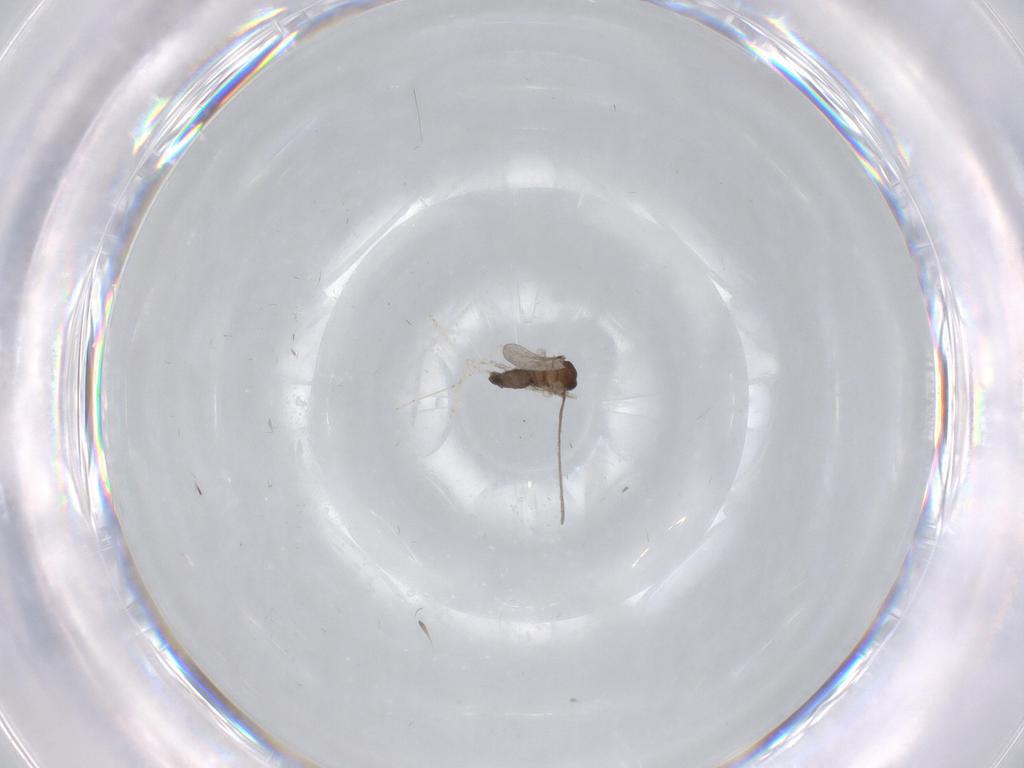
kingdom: Animalia
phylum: Arthropoda
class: Insecta
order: Diptera
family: Cecidomyiidae
